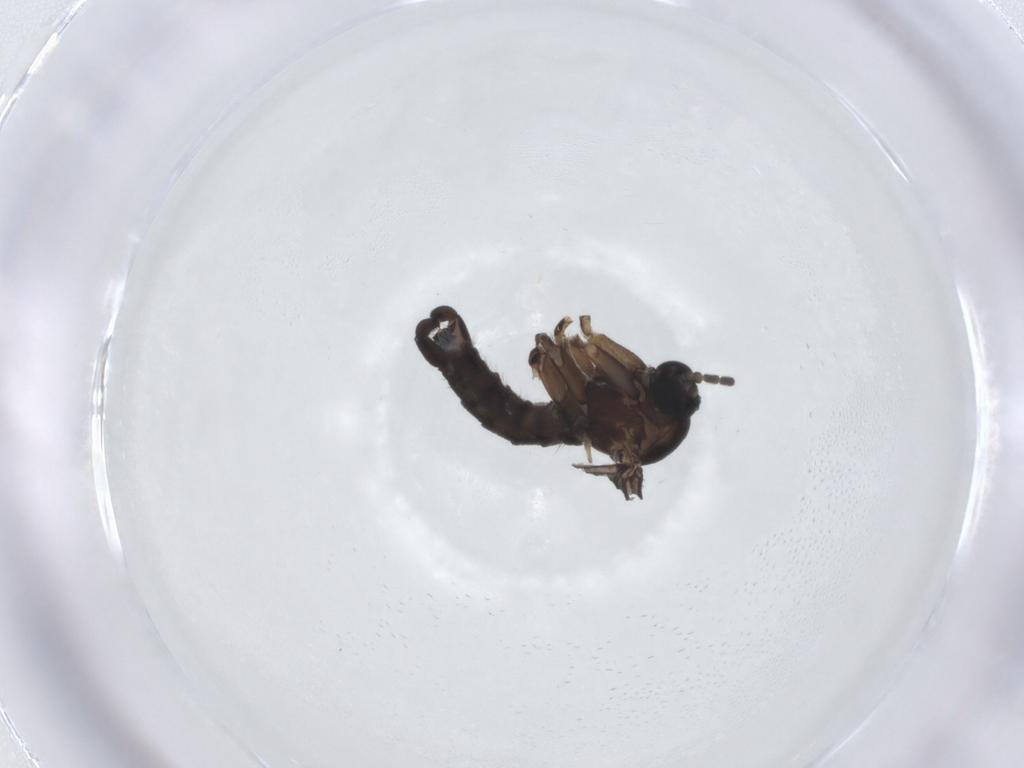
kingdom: Animalia
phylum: Arthropoda
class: Insecta
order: Diptera
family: Sciaridae
